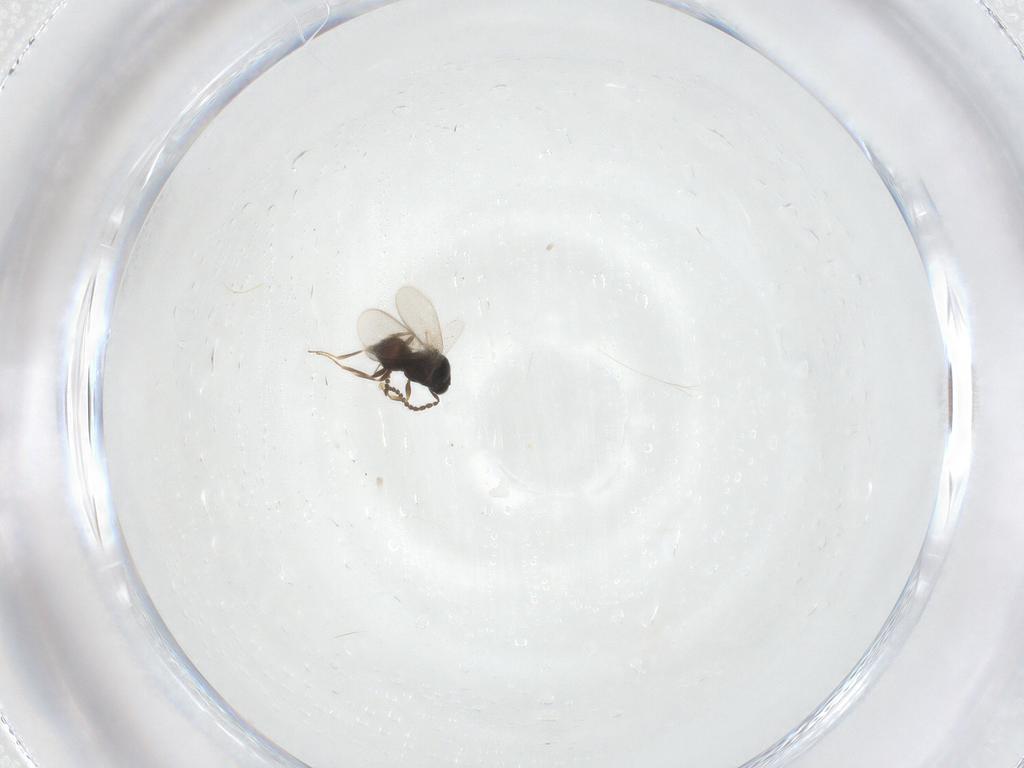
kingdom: Animalia
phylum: Arthropoda
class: Insecta
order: Hymenoptera
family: Scelionidae
